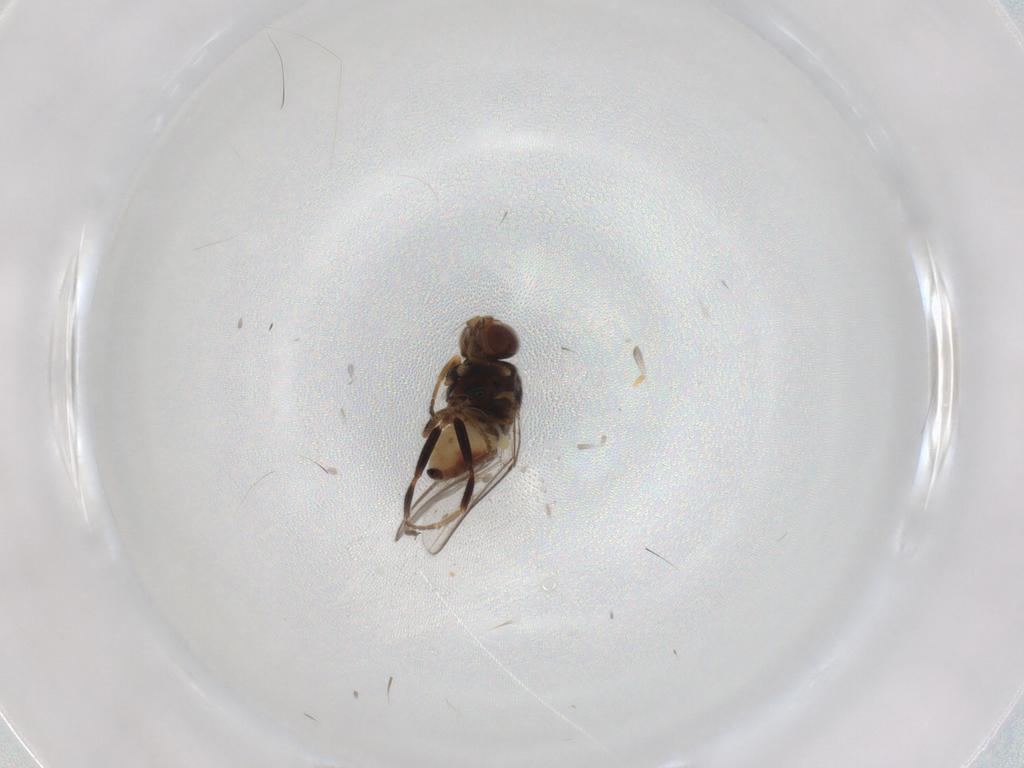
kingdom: Animalia
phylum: Arthropoda
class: Insecta
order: Diptera
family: Chloropidae
